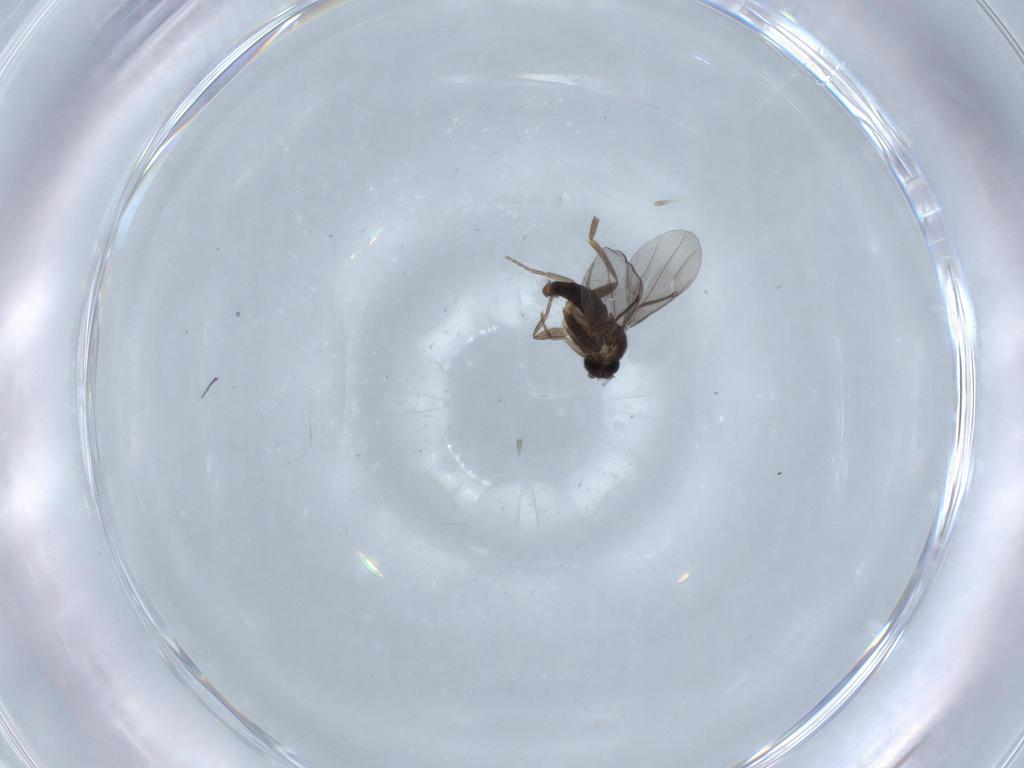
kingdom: Animalia
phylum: Arthropoda
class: Insecta
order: Diptera
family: Phoridae
